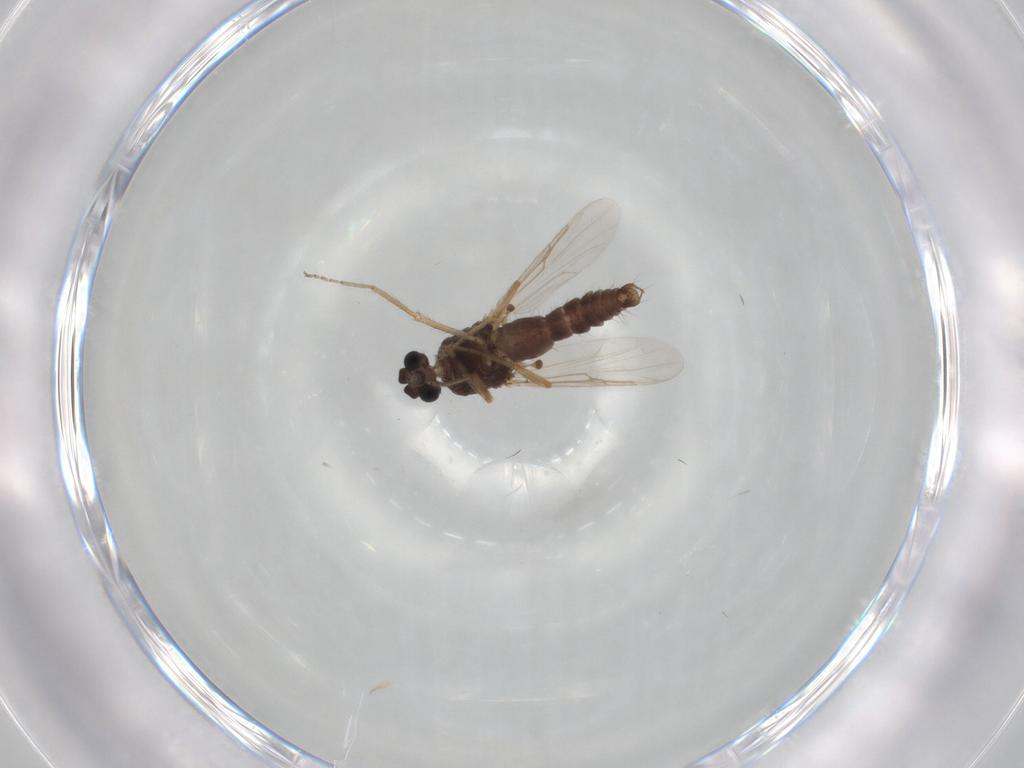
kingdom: Animalia
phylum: Arthropoda
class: Insecta
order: Diptera
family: Ceratopogonidae
